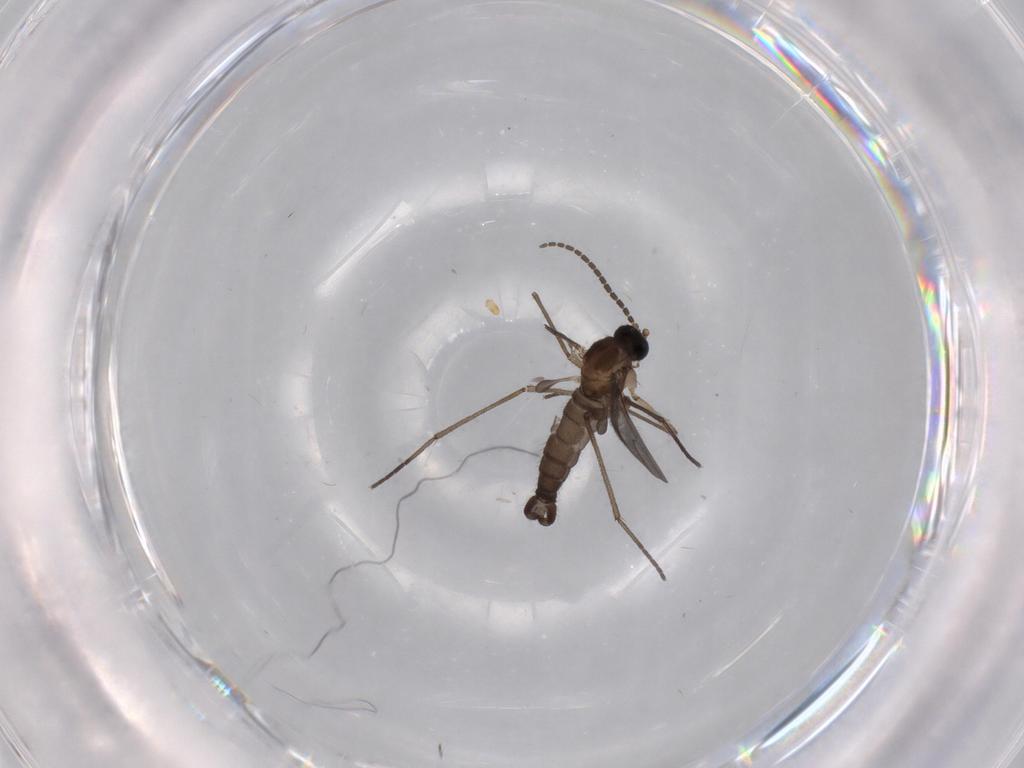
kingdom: Animalia
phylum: Arthropoda
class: Insecta
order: Diptera
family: Sciaridae
